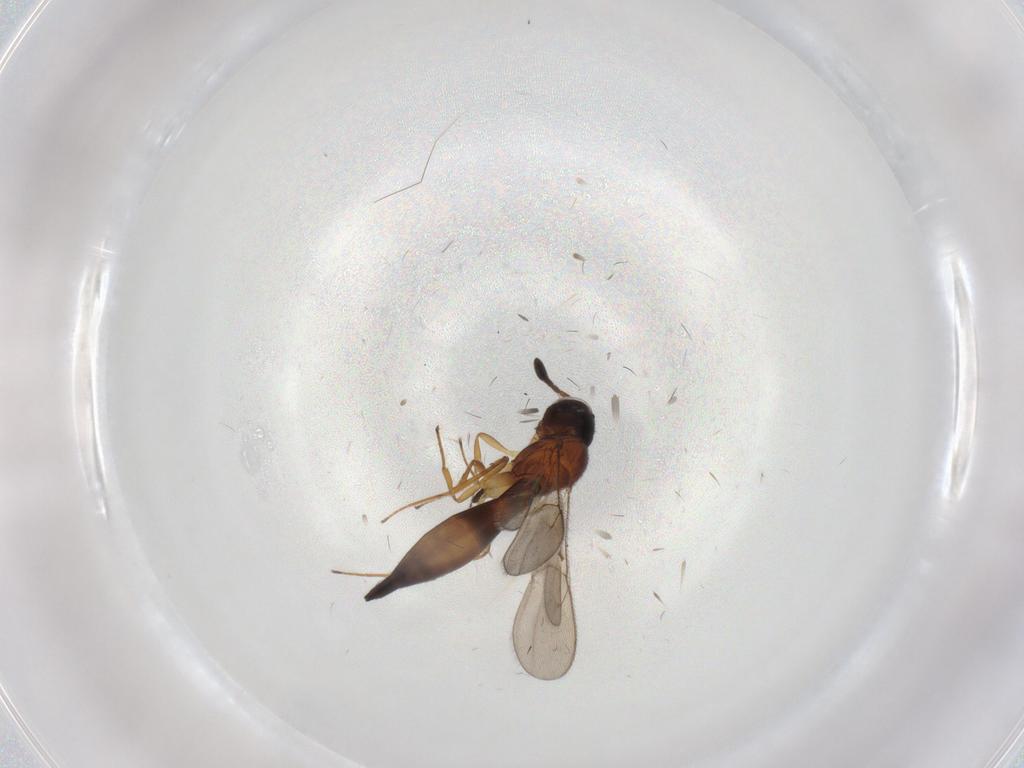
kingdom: Animalia
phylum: Arthropoda
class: Insecta
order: Hymenoptera
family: Scelionidae
